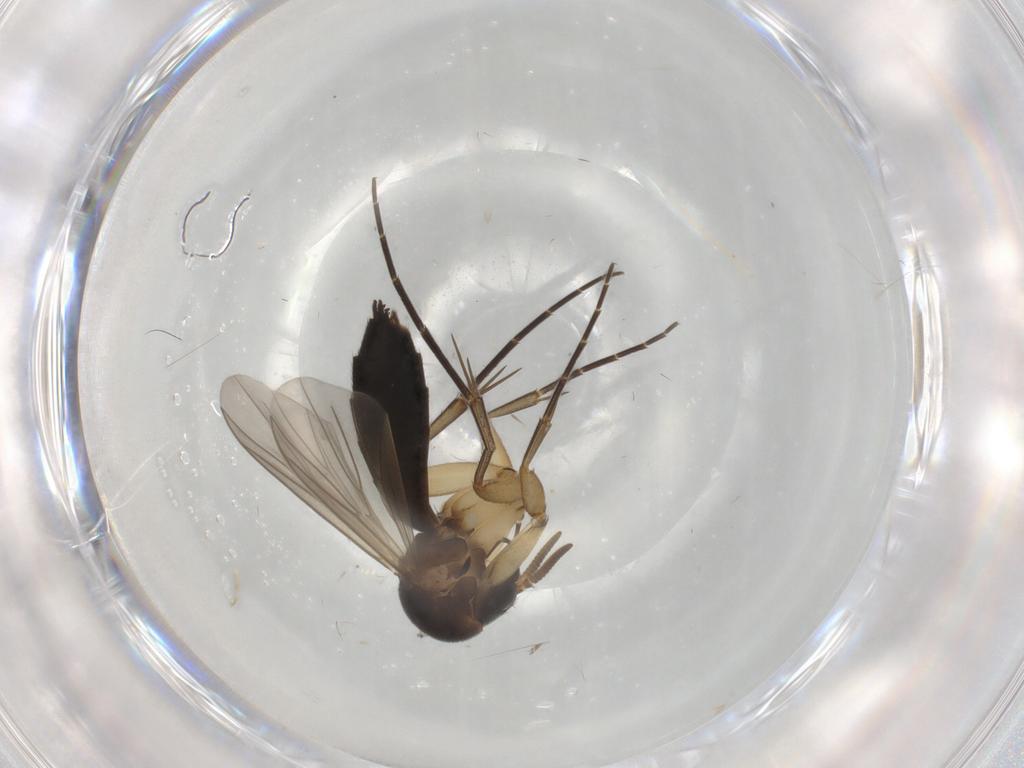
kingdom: Animalia
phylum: Arthropoda
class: Insecta
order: Diptera
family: Mycetophilidae
